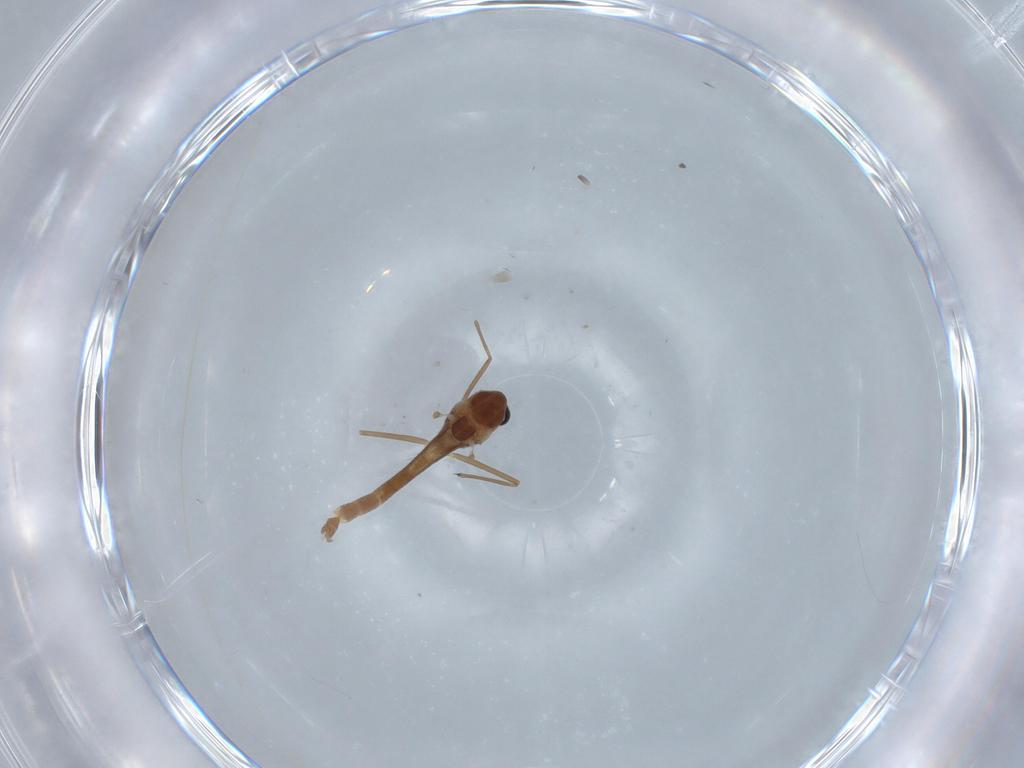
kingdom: Animalia
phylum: Arthropoda
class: Insecta
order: Diptera
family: Chironomidae
